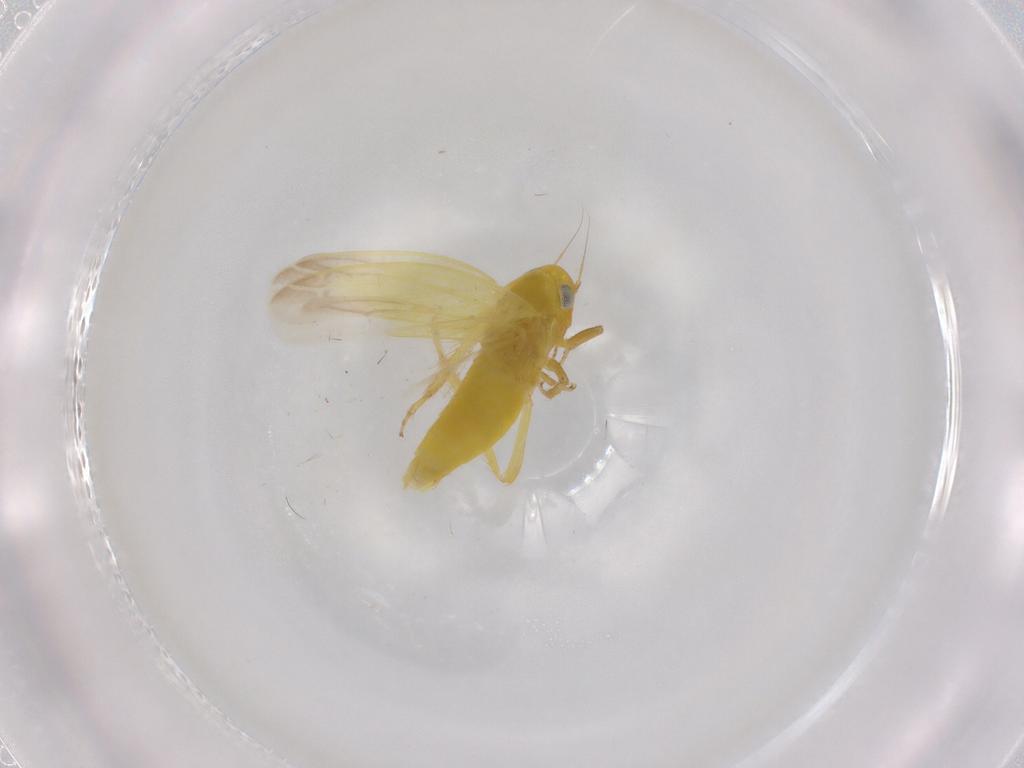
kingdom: Animalia
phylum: Arthropoda
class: Insecta
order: Hemiptera
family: Cicadellidae
